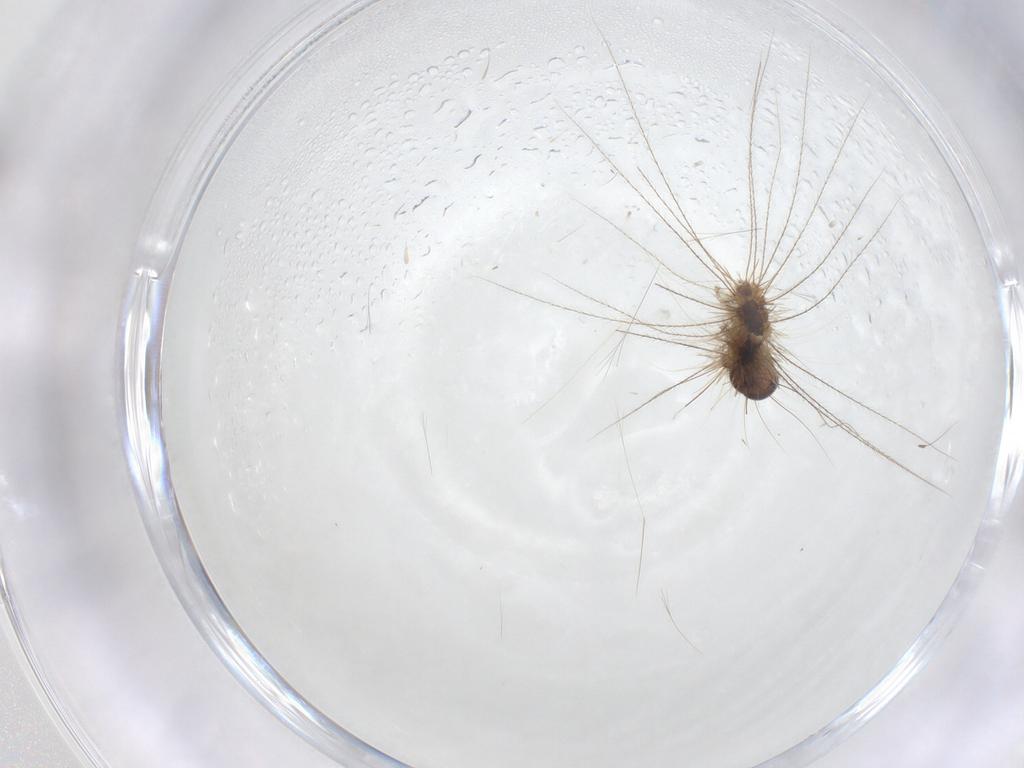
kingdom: Animalia
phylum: Arthropoda
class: Insecta
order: Lepidoptera
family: Erebidae
